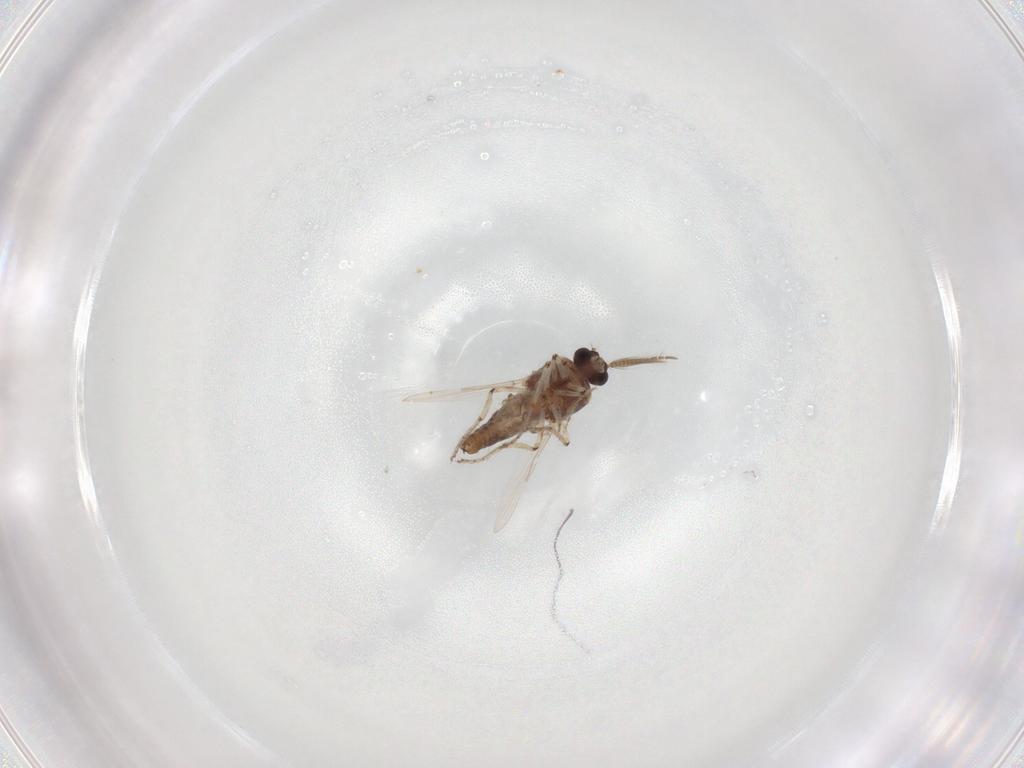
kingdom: Animalia
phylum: Arthropoda
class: Insecta
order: Diptera
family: Ceratopogonidae
